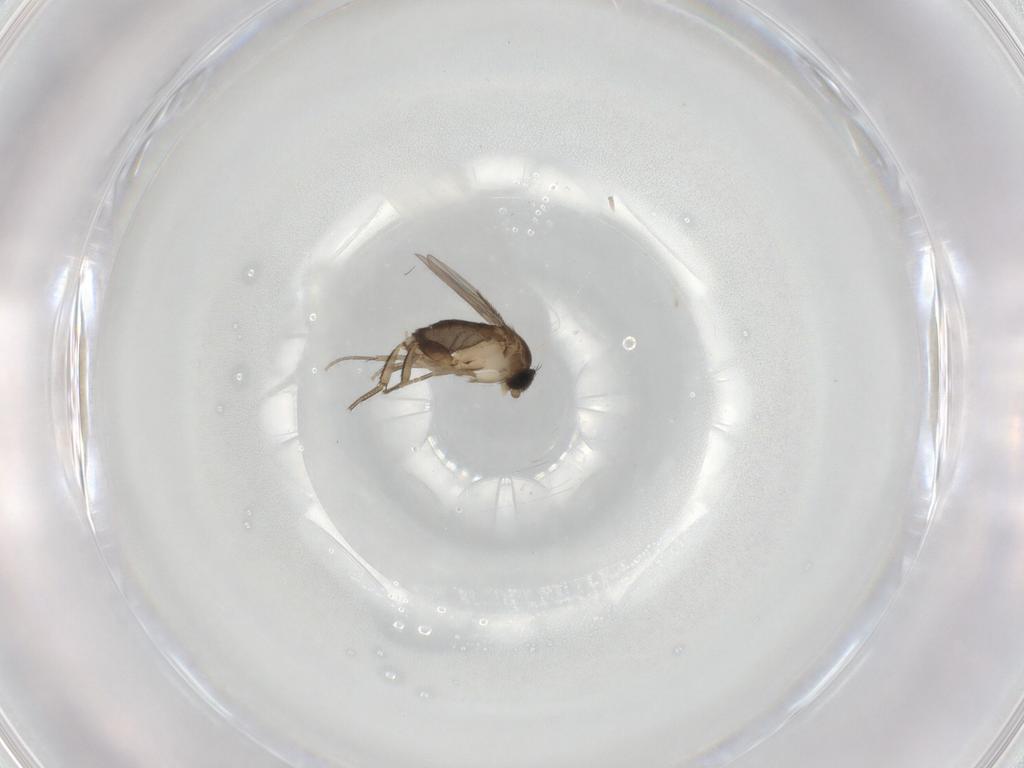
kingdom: Animalia
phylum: Arthropoda
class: Insecta
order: Diptera
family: Phoridae
